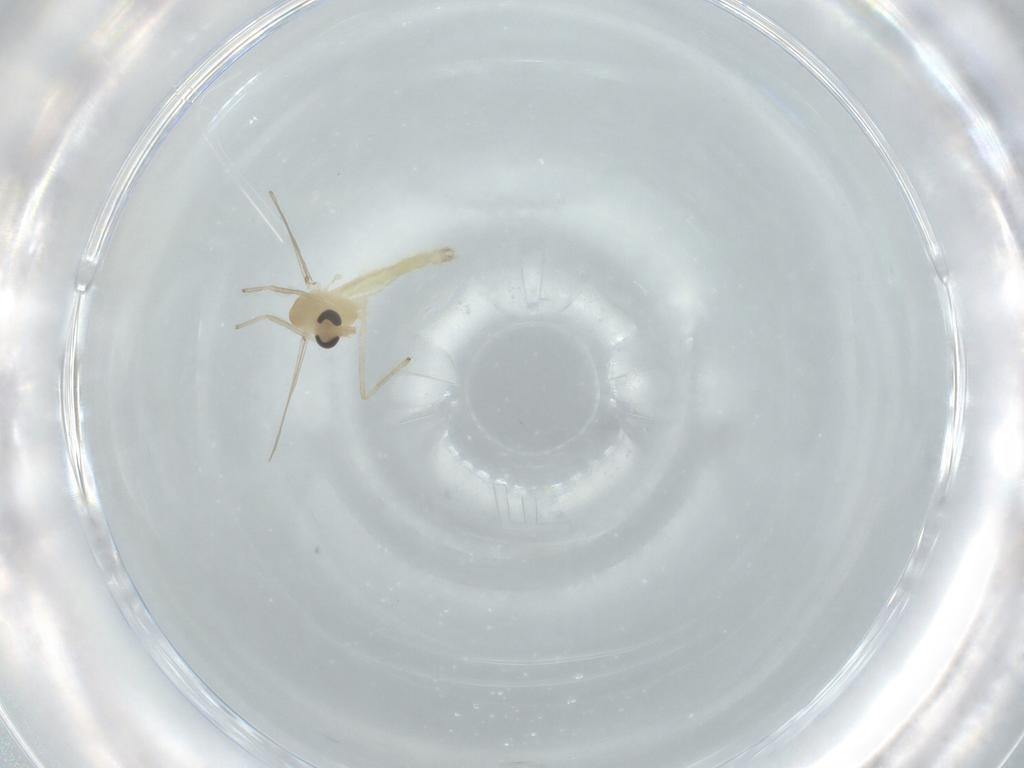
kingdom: Animalia
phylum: Arthropoda
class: Insecta
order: Diptera
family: Chironomidae
